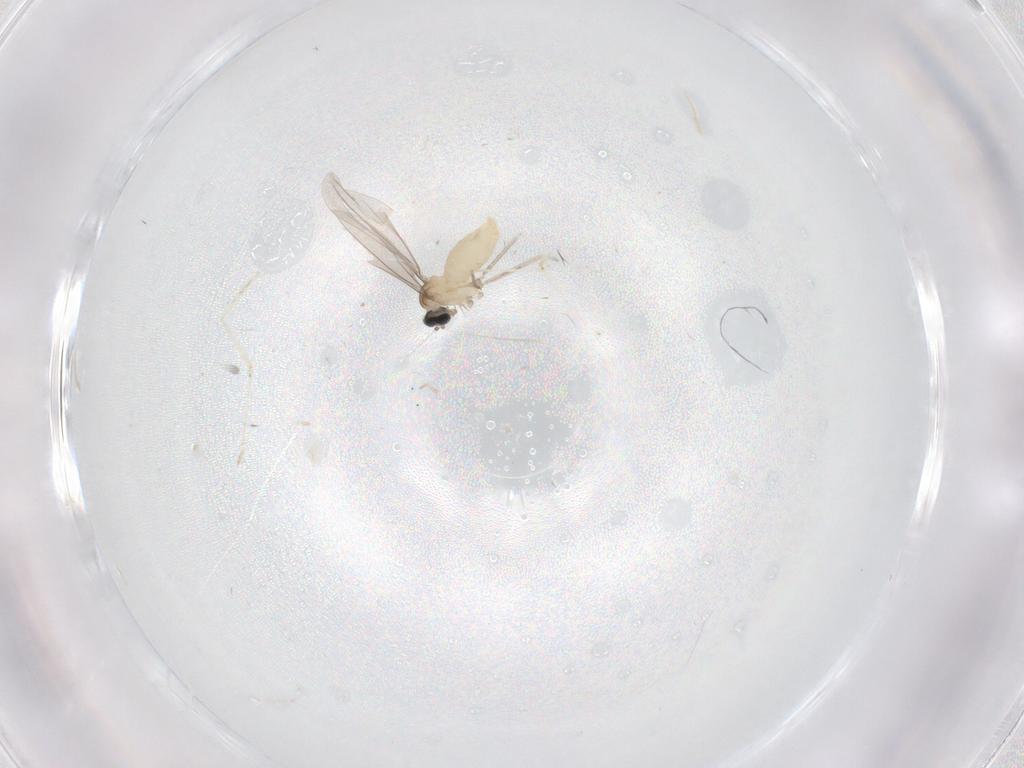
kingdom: Animalia
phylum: Arthropoda
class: Insecta
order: Diptera
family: Cecidomyiidae
